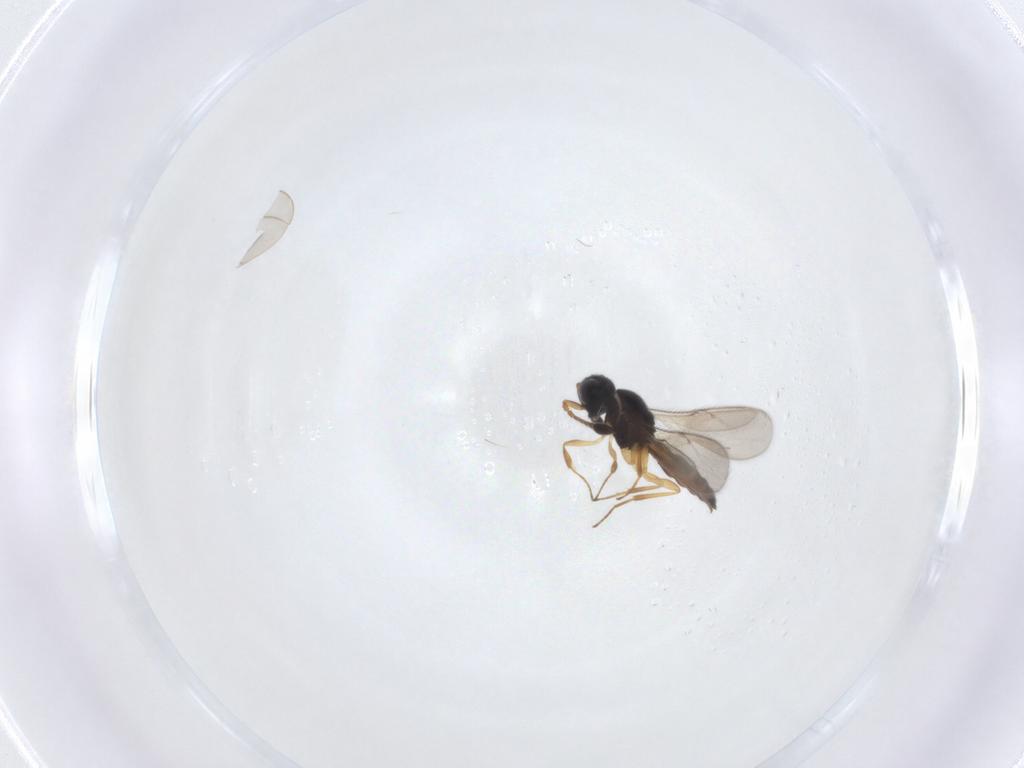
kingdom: Animalia
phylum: Arthropoda
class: Insecta
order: Hymenoptera
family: Scelionidae
